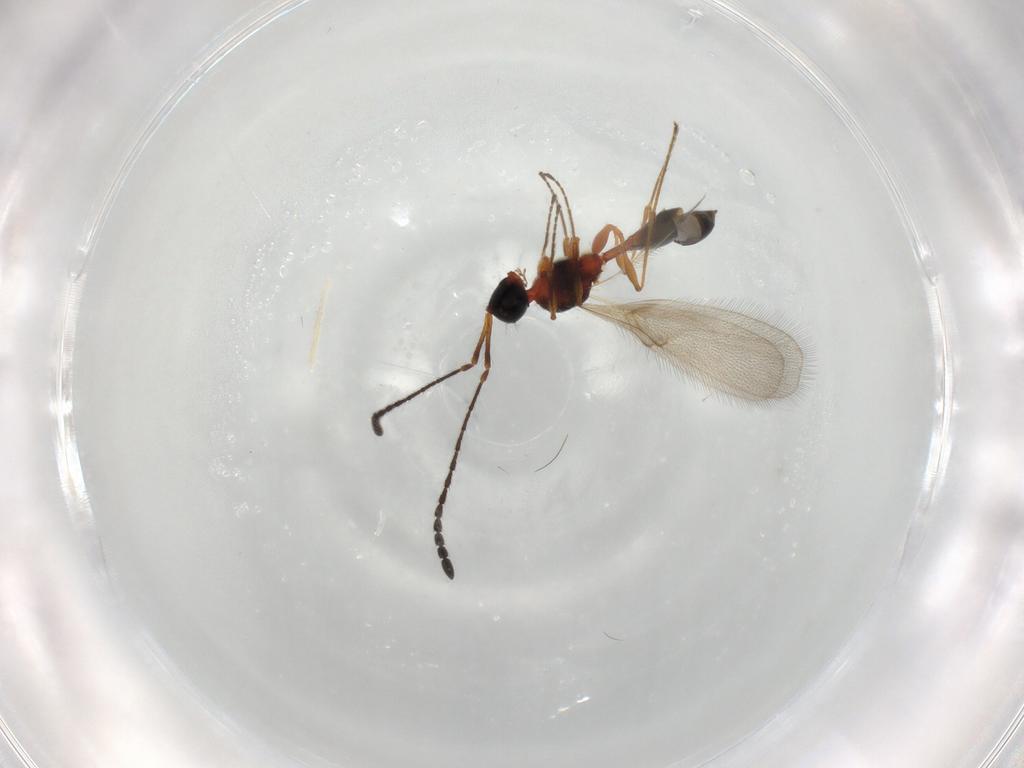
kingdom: Animalia
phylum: Arthropoda
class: Insecta
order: Hymenoptera
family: Diapriidae
